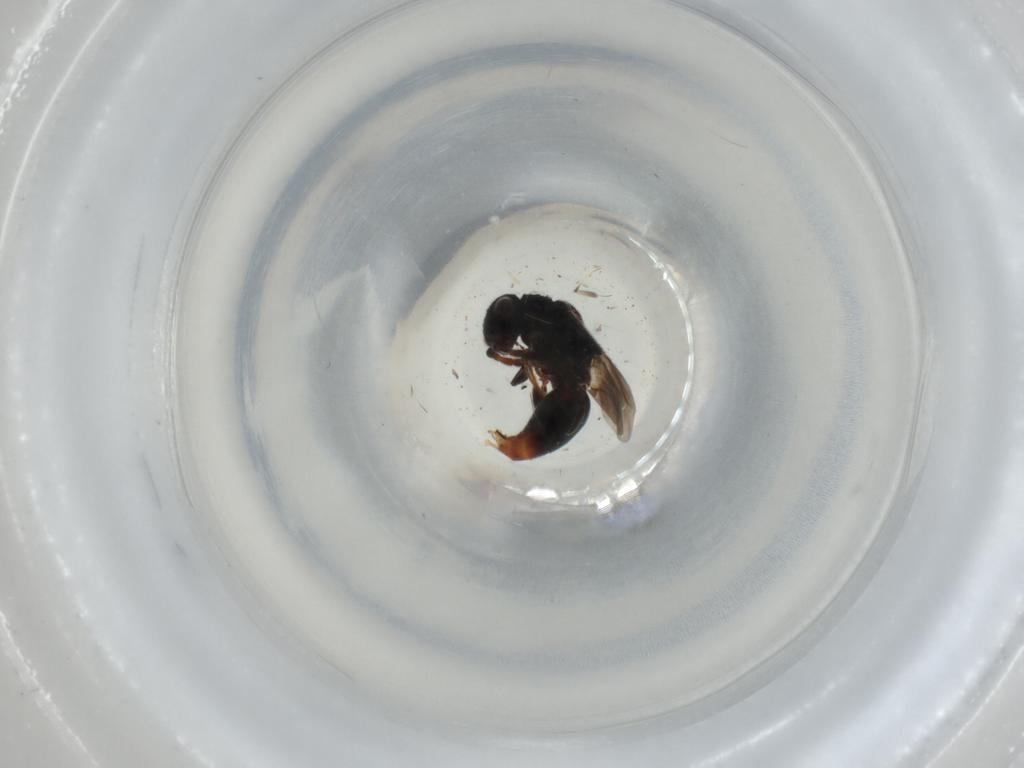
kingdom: Animalia
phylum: Arthropoda
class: Insecta
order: Hymenoptera
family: Bethylidae
